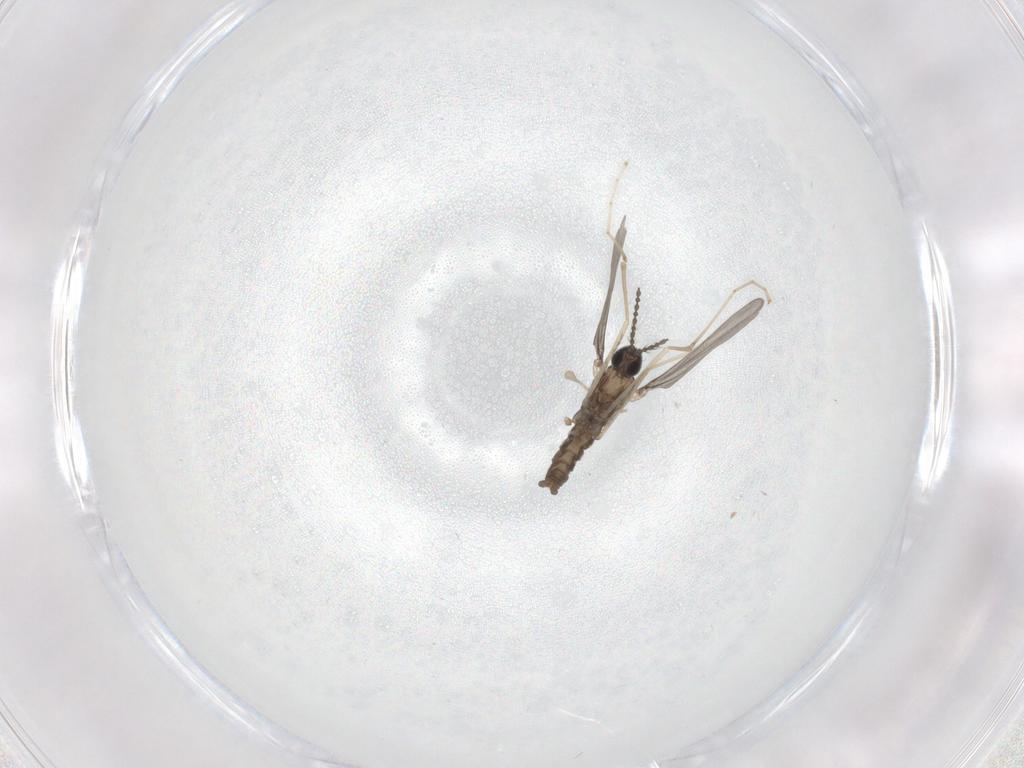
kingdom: Animalia
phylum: Arthropoda
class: Insecta
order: Diptera
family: Cecidomyiidae
